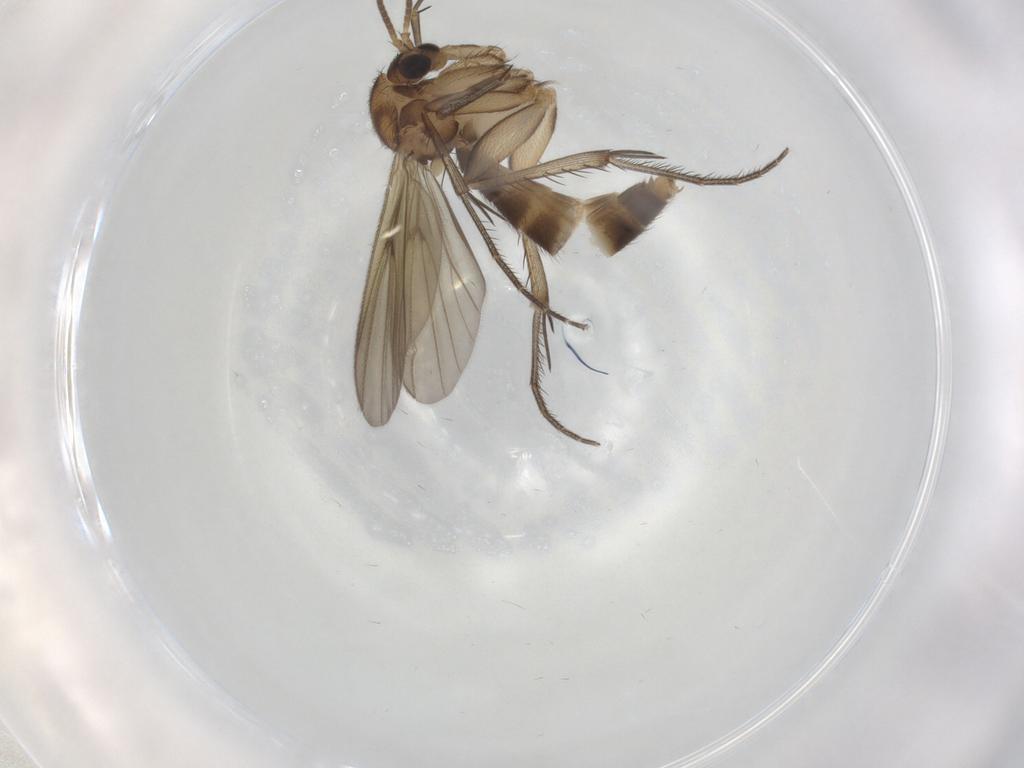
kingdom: Animalia
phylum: Arthropoda
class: Insecta
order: Diptera
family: Mycetophilidae
